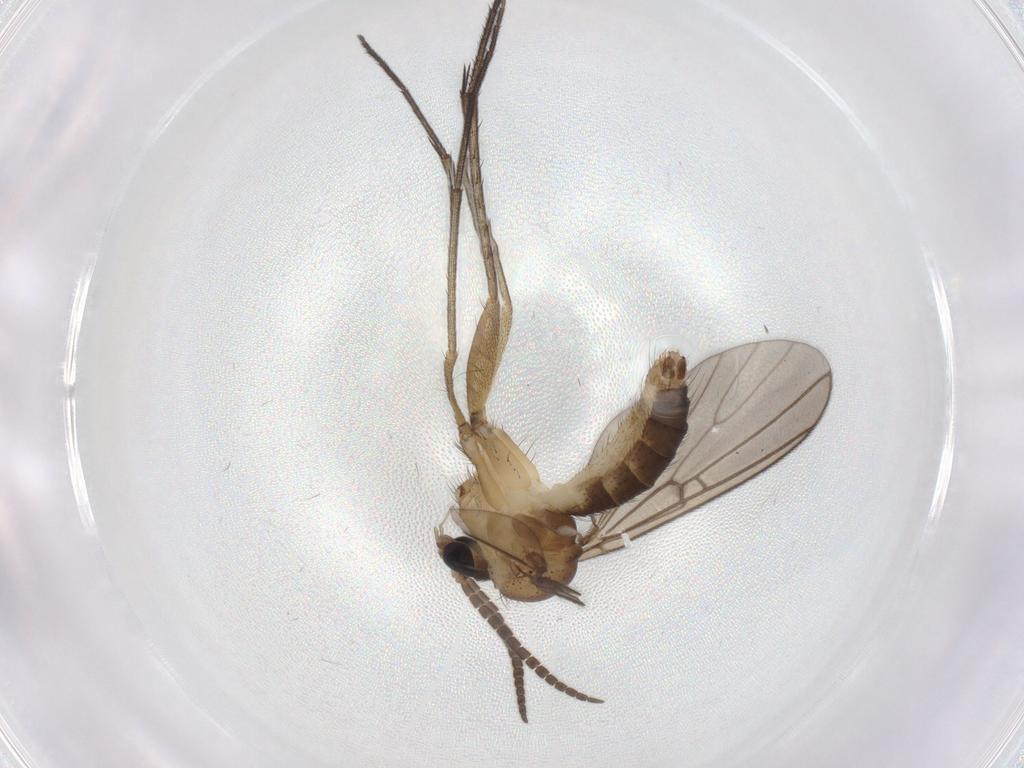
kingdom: Animalia
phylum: Arthropoda
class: Insecta
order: Diptera
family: Cecidomyiidae
